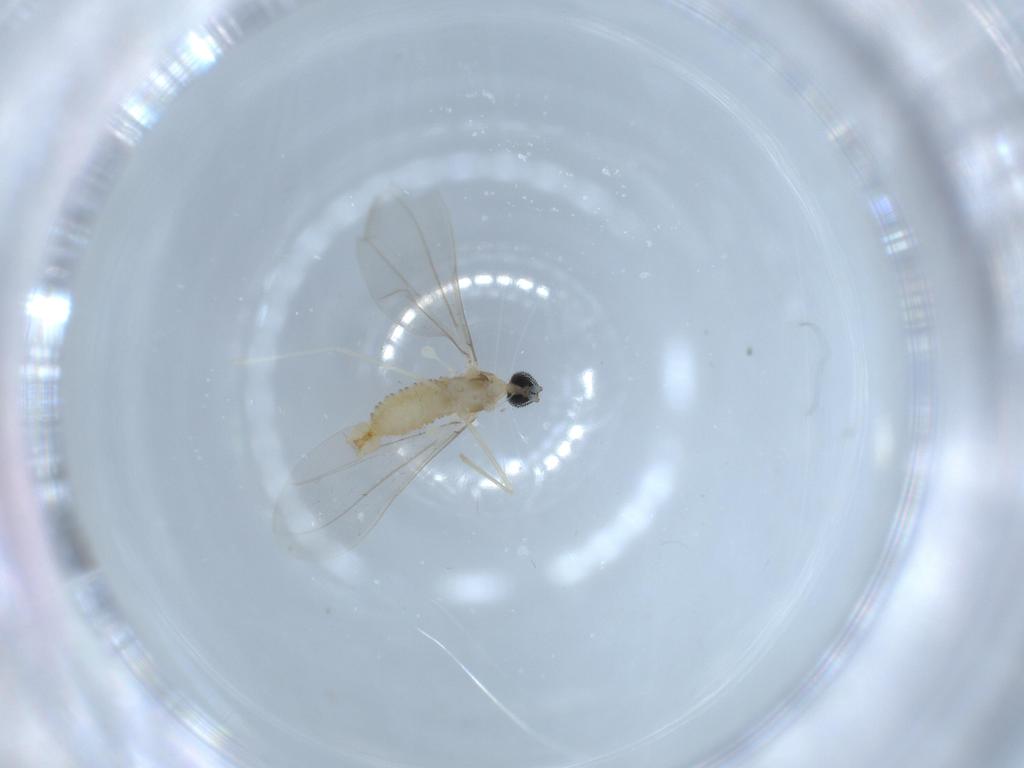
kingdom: Animalia
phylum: Arthropoda
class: Insecta
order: Diptera
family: Cecidomyiidae
